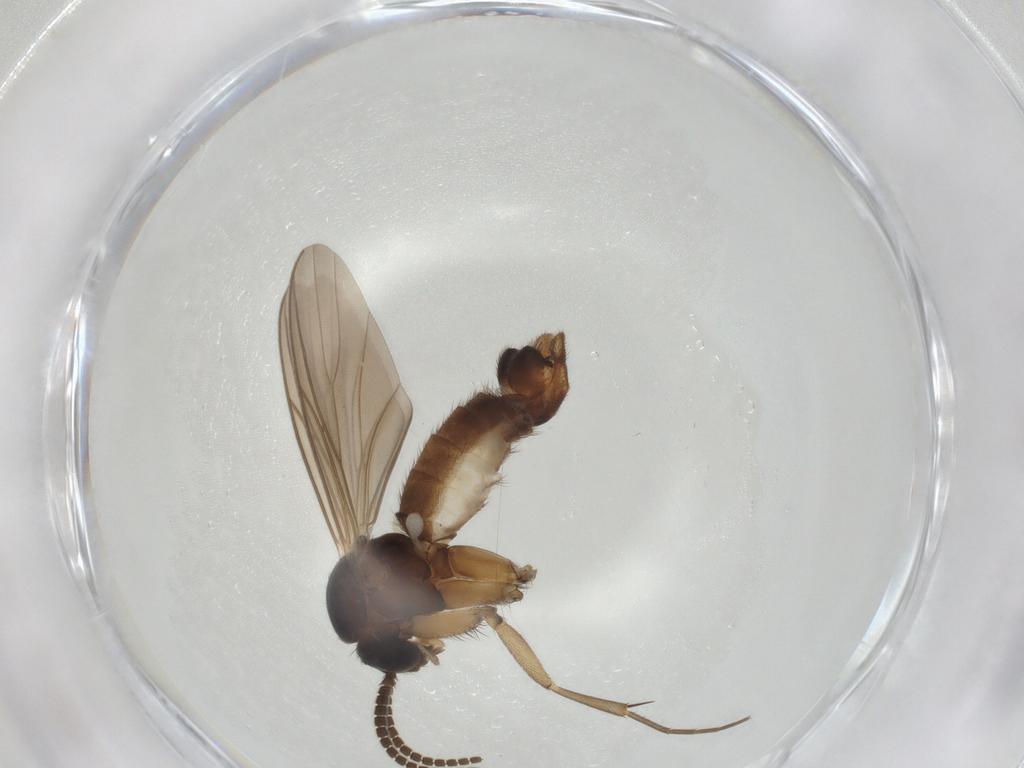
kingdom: Animalia
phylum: Arthropoda
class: Insecta
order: Diptera
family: Mycetophilidae
